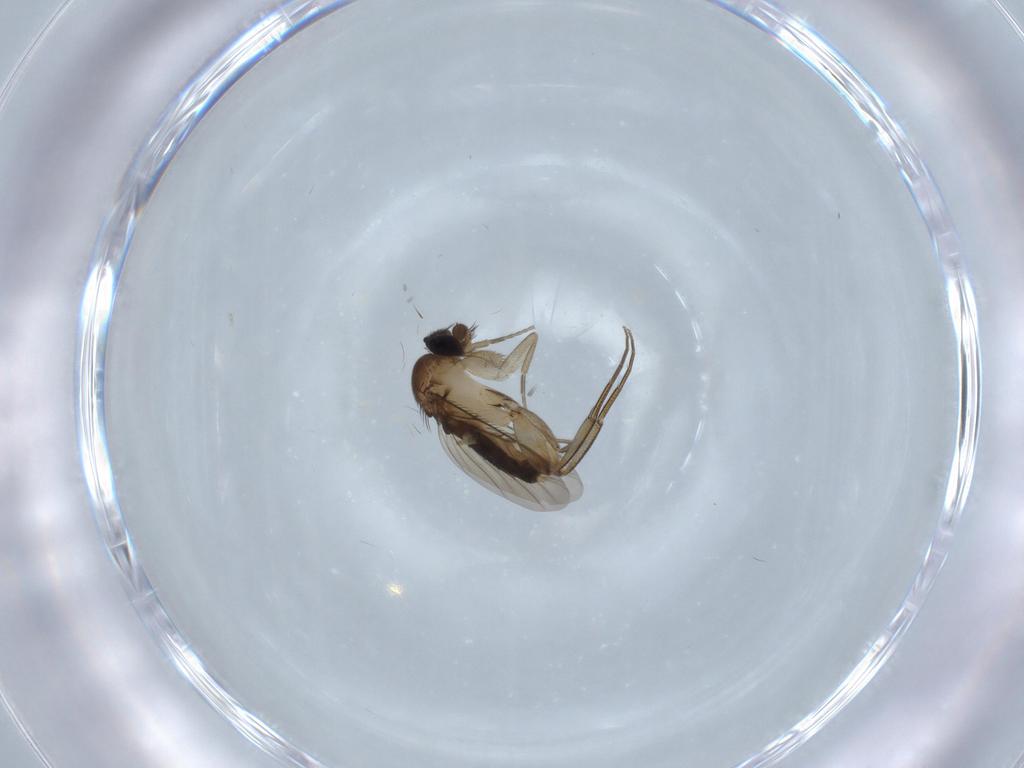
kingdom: Animalia
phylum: Arthropoda
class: Insecta
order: Diptera
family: Phoridae
